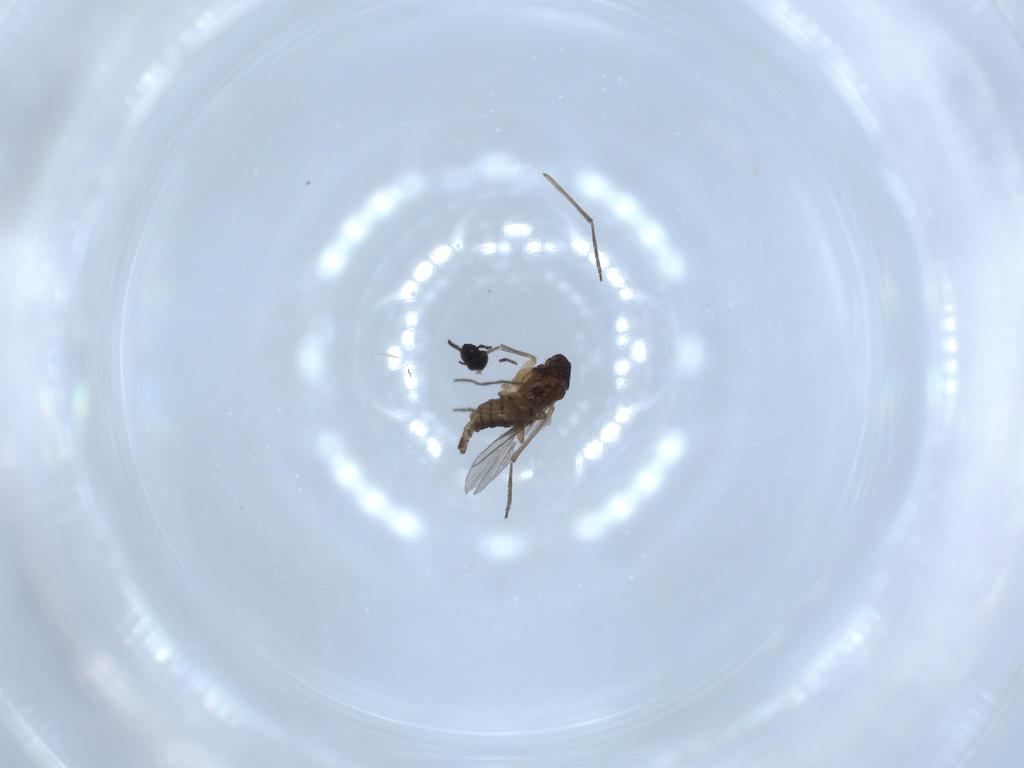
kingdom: Animalia
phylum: Arthropoda
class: Insecta
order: Diptera
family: Sciaridae
